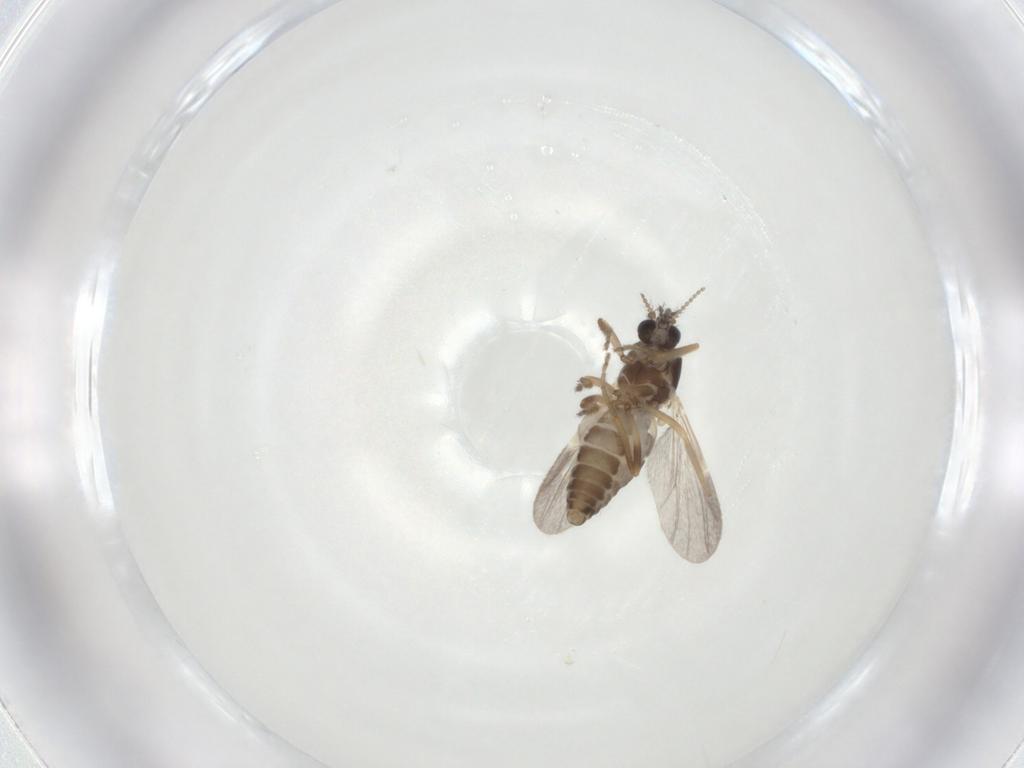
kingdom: Animalia
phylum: Arthropoda
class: Insecta
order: Diptera
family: Ceratopogonidae
